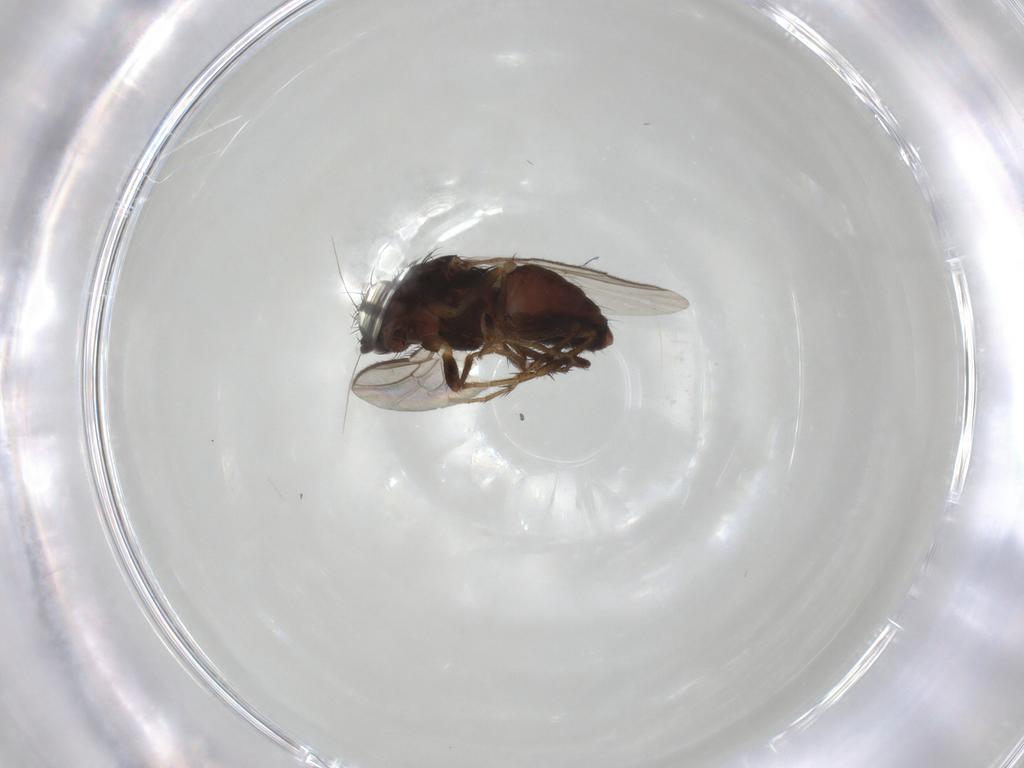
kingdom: Animalia
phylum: Arthropoda
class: Insecta
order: Diptera
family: Sphaeroceridae
